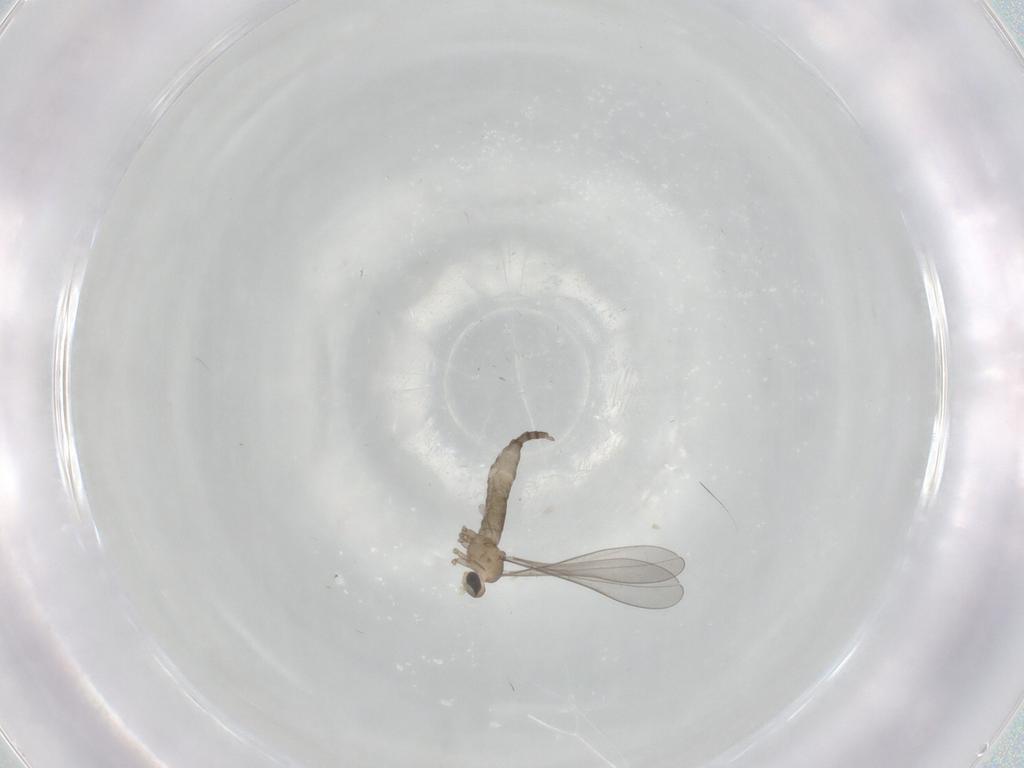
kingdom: Animalia
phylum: Arthropoda
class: Insecta
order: Diptera
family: Cecidomyiidae
